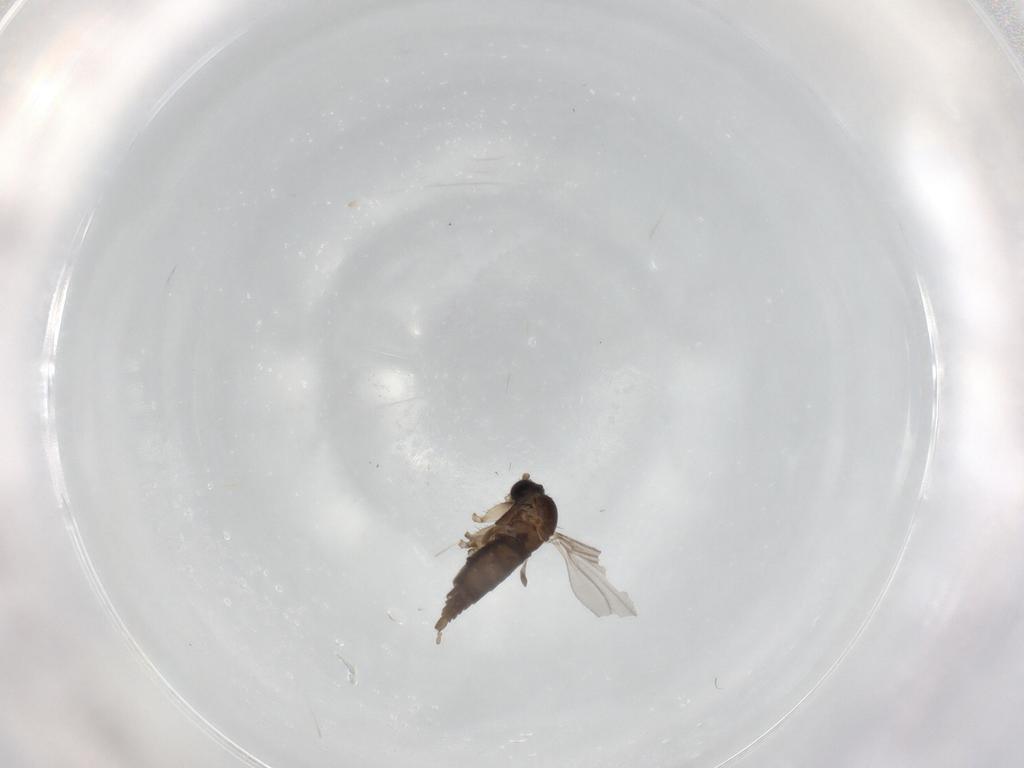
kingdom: Animalia
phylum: Arthropoda
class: Insecta
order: Diptera
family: Sciaridae
